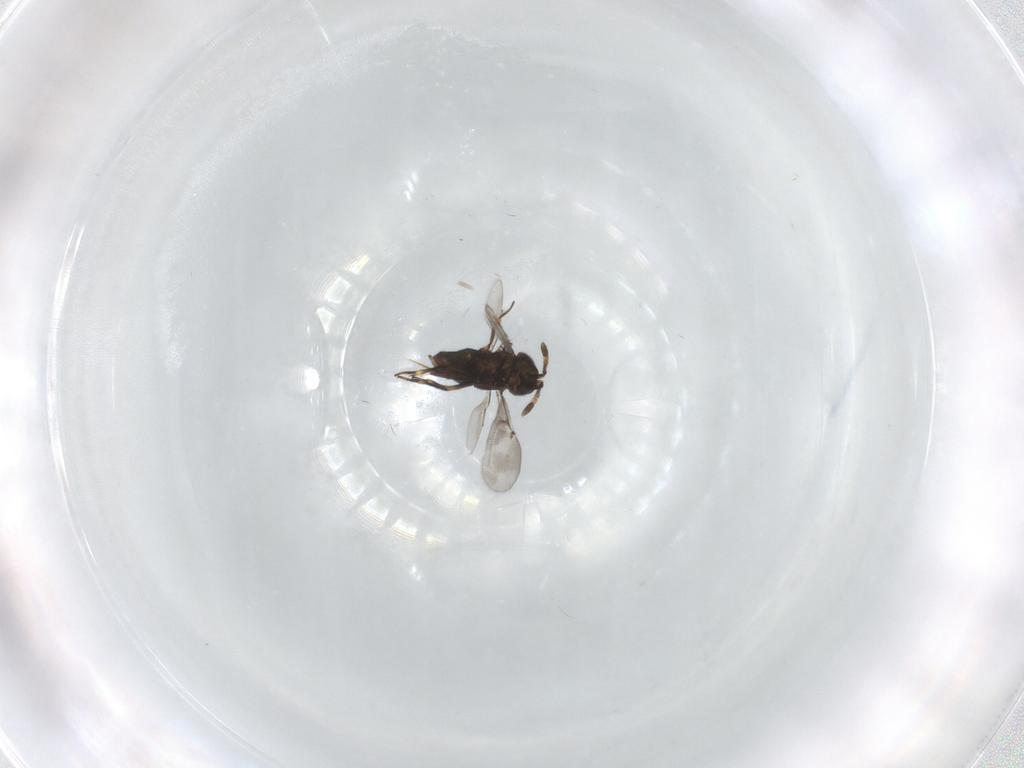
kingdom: Animalia
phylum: Arthropoda
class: Insecta
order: Hymenoptera
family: Encyrtidae
